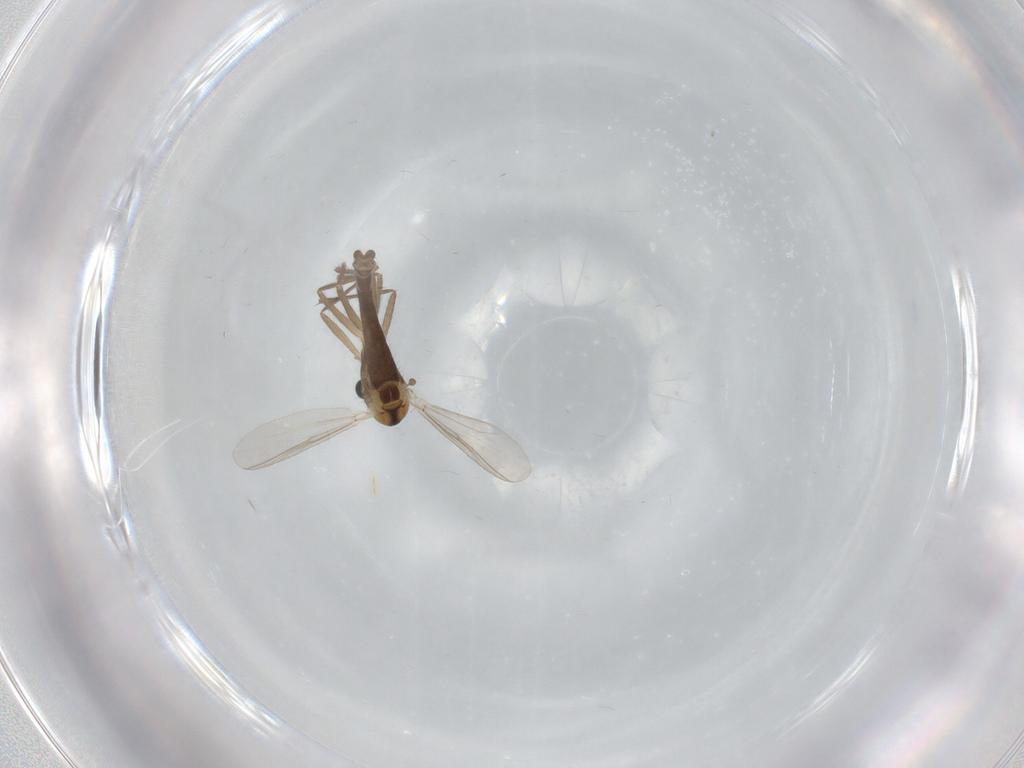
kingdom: Animalia
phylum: Arthropoda
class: Insecta
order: Diptera
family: Chironomidae
